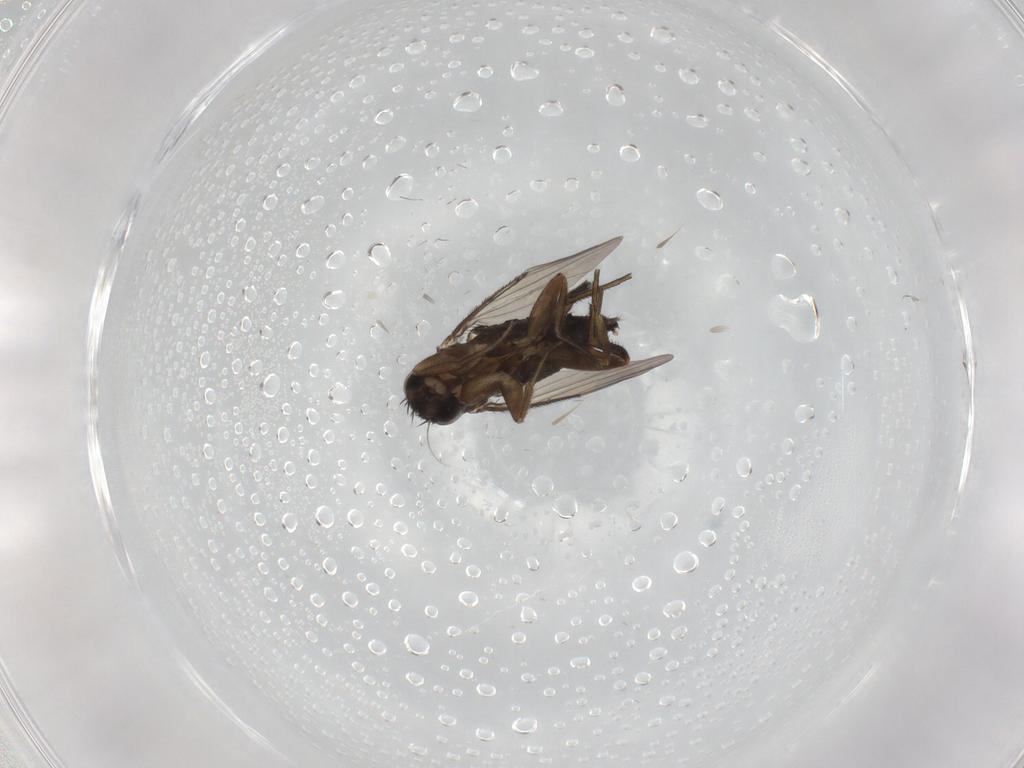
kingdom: Animalia
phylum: Arthropoda
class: Insecta
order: Diptera
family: Phoridae
